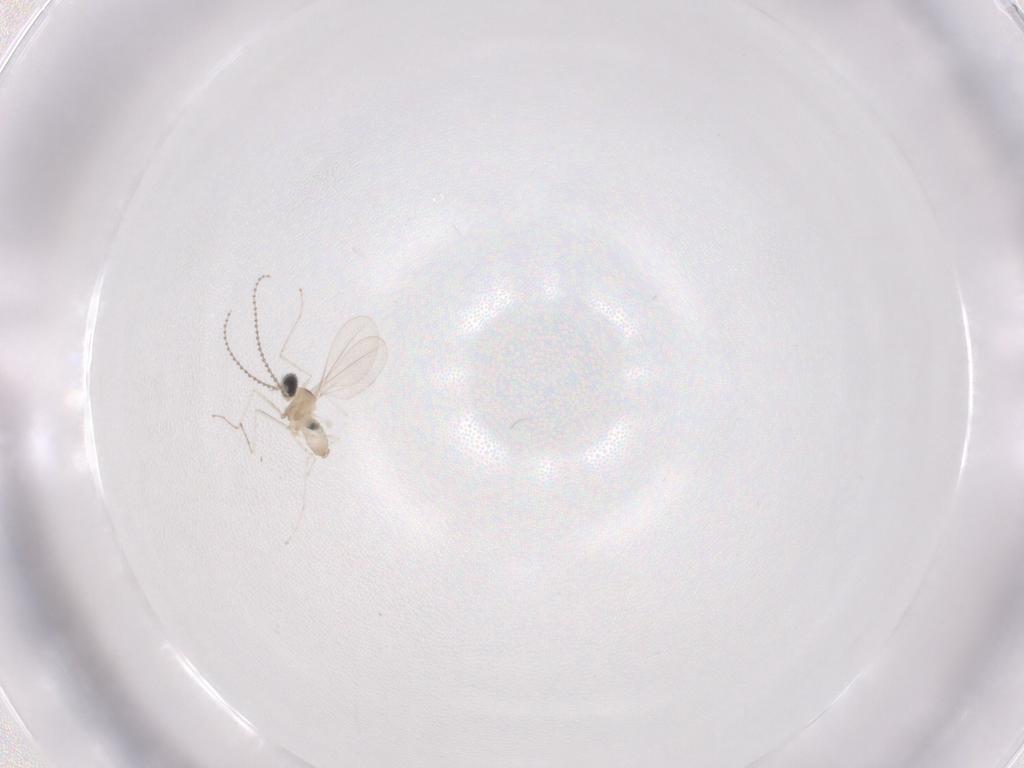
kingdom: Animalia
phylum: Arthropoda
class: Insecta
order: Diptera
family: Cecidomyiidae
